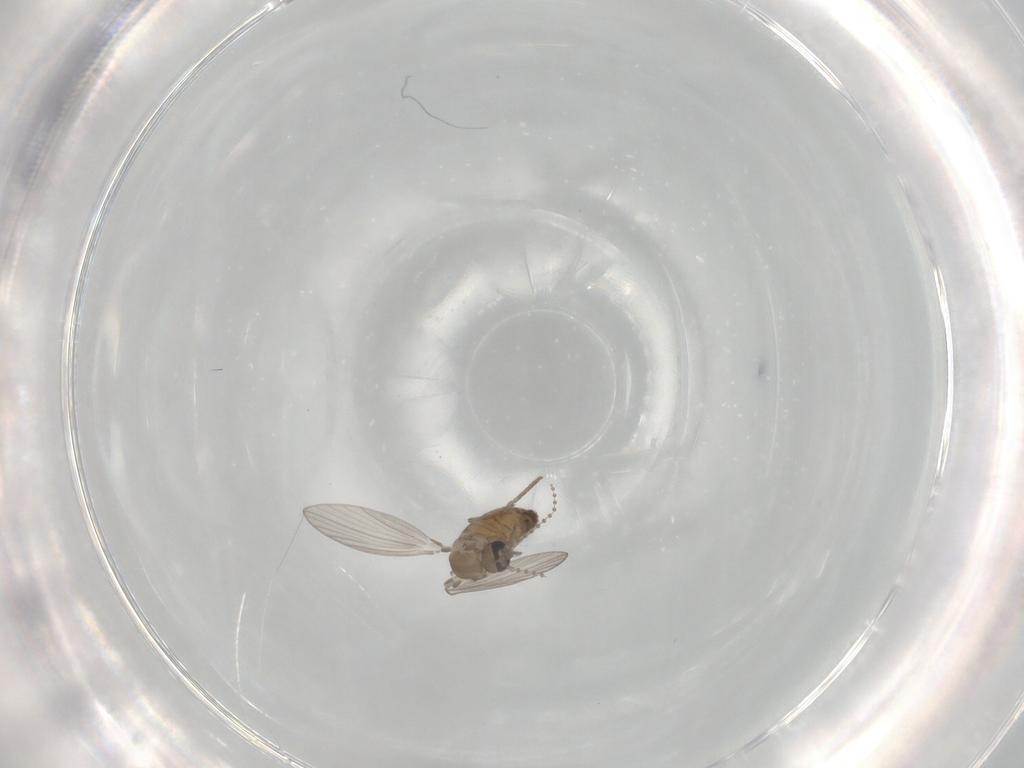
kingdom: Animalia
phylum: Arthropoda
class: Insecta
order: Diptera
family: Psychodidae
